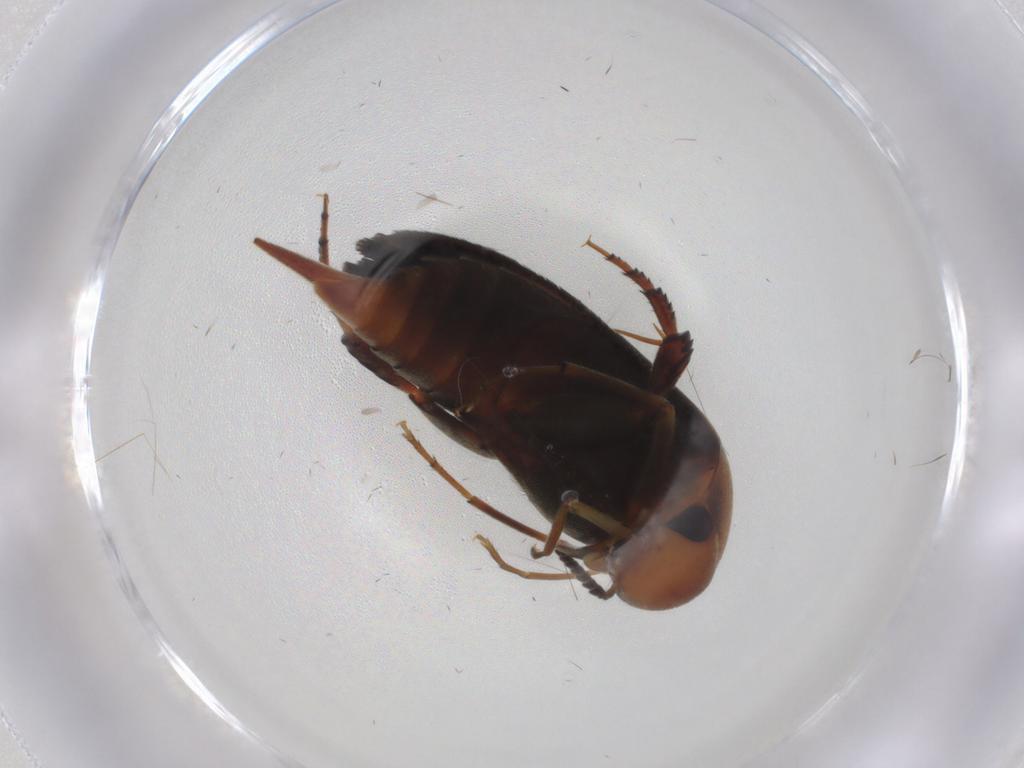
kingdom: Animalia
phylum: Arthropoda
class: Insecta
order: Coleoptera
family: Mordellidae
